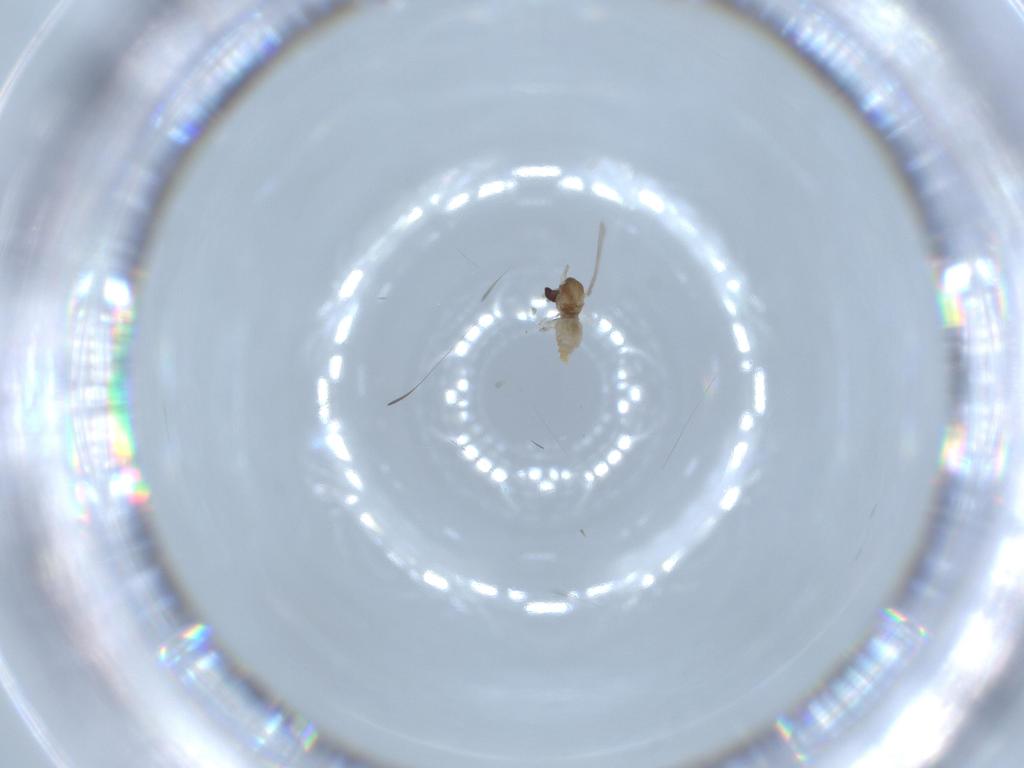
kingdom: Animalia
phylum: Arthropoda
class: Insecta
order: Diptera
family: Cecidomyiidae
